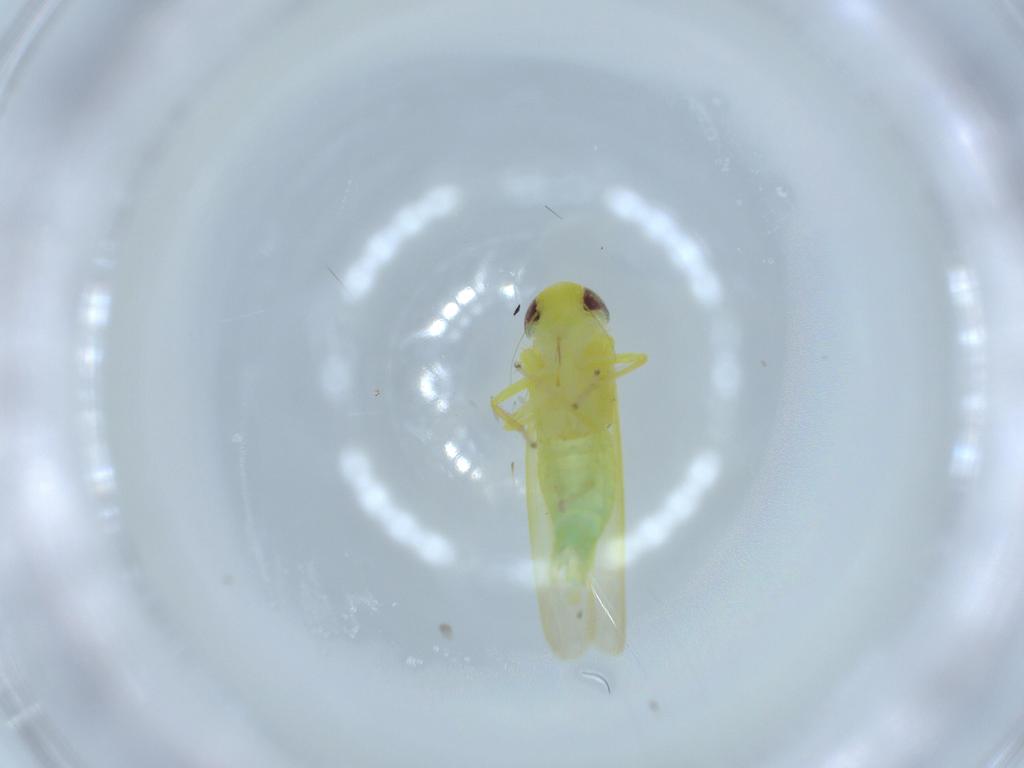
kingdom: Animalia
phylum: Arthropoda
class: Insecta
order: Hemiptera
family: Cicadellidae
